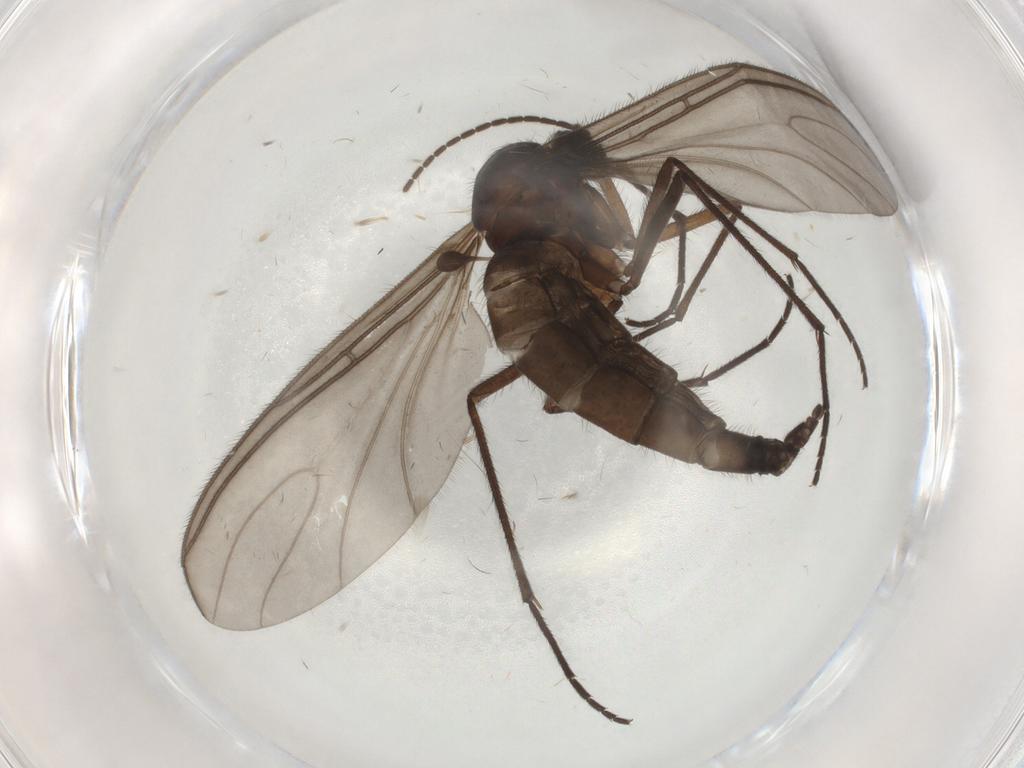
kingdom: Animalia
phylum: Arthropoda
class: Insecta
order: Diptera
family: Sciaridae
